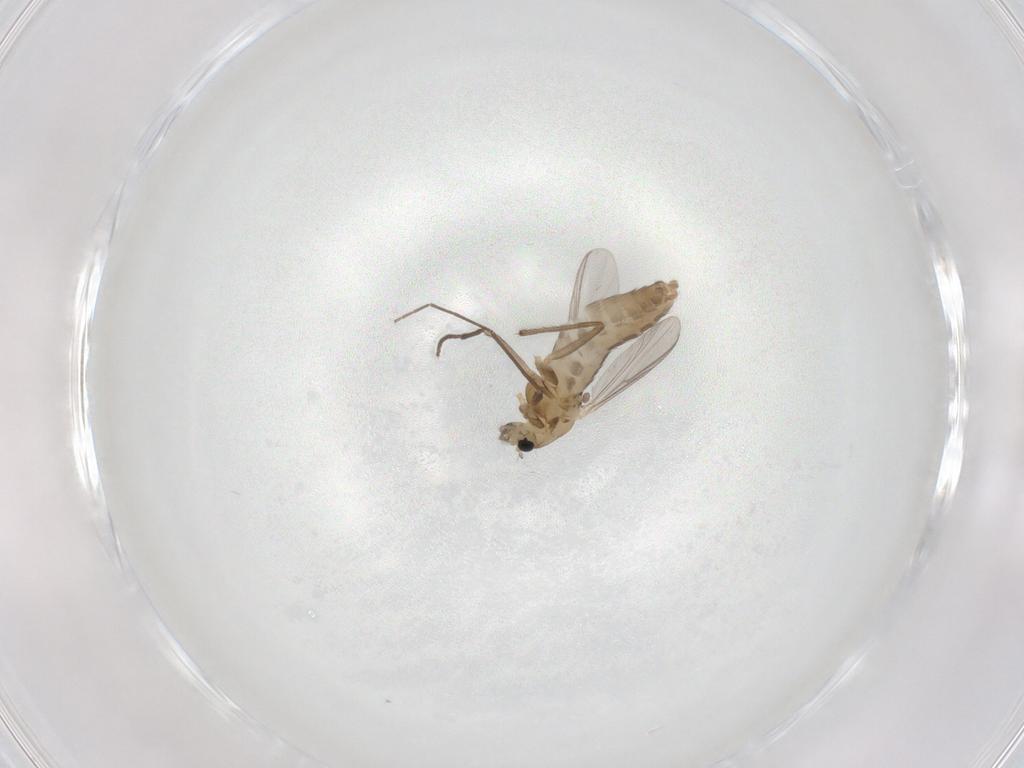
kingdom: Animalia
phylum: Arthropoda
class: Insecta
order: Diptera
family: Chironomidae
